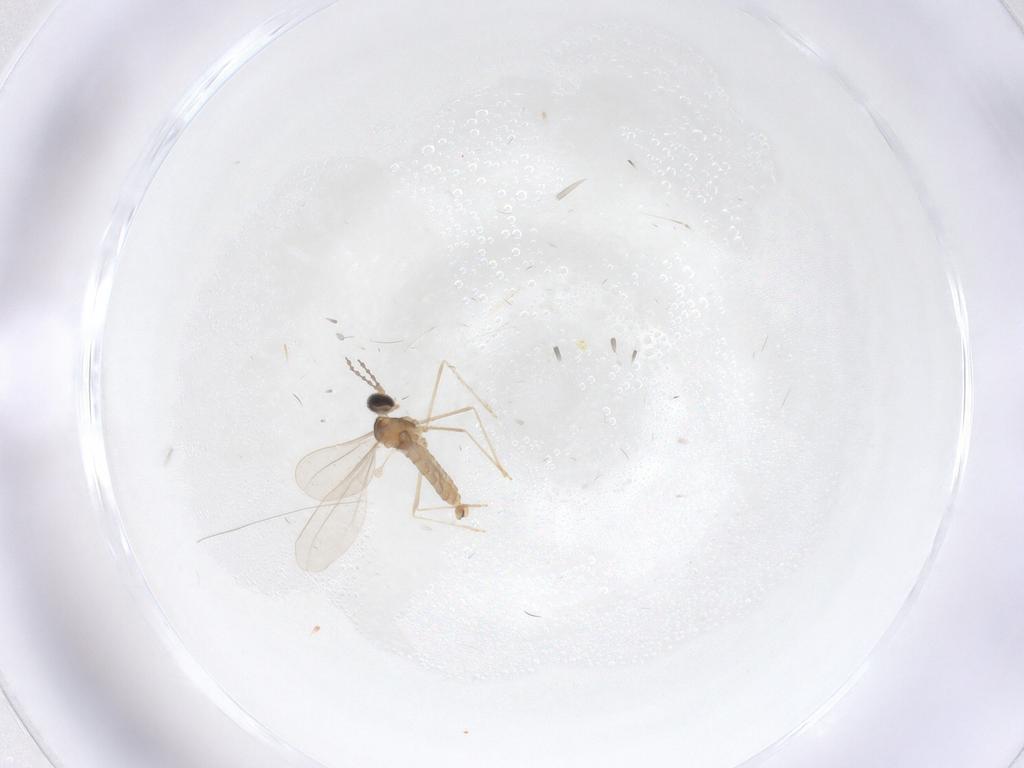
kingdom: Animalia
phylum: Arthropoda
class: Insecta
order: Diptera
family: Cecidomyiidae
